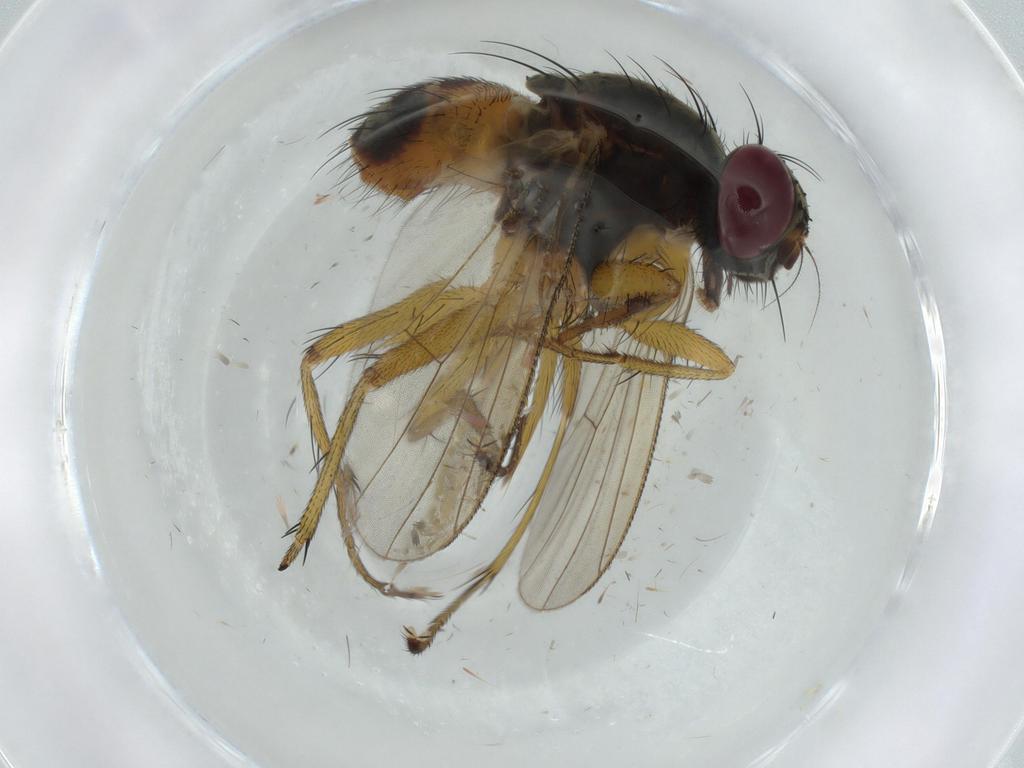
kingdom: Animalia
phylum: Arthropoda
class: Insecta
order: Diptera
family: Muscidae
